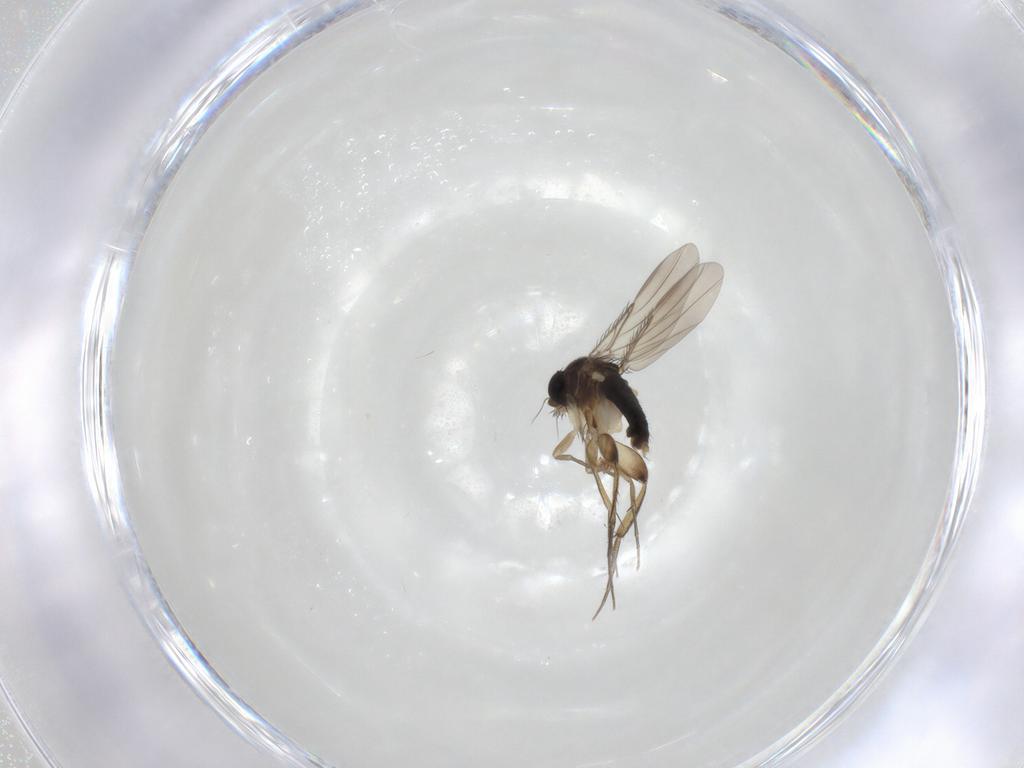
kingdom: Animalia
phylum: Arthropoda
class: Insecta
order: Diptera
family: Phoridae
